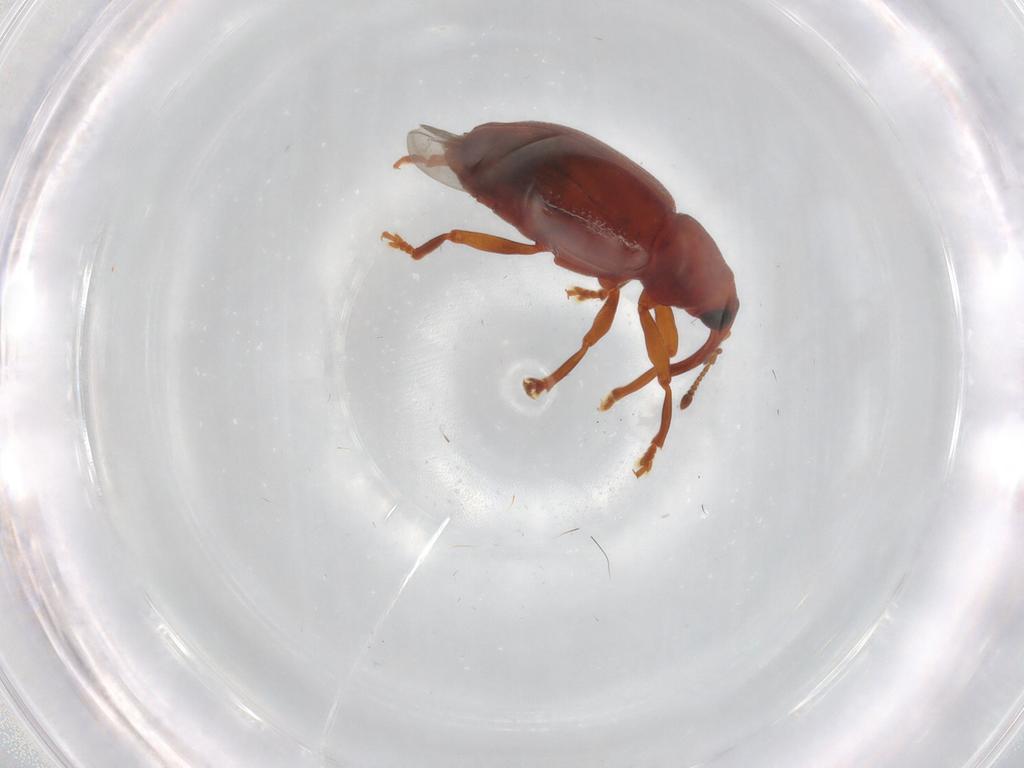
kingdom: Animalia
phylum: Arthropoda
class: Insecta
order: Coleoptera
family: Curculionidae
